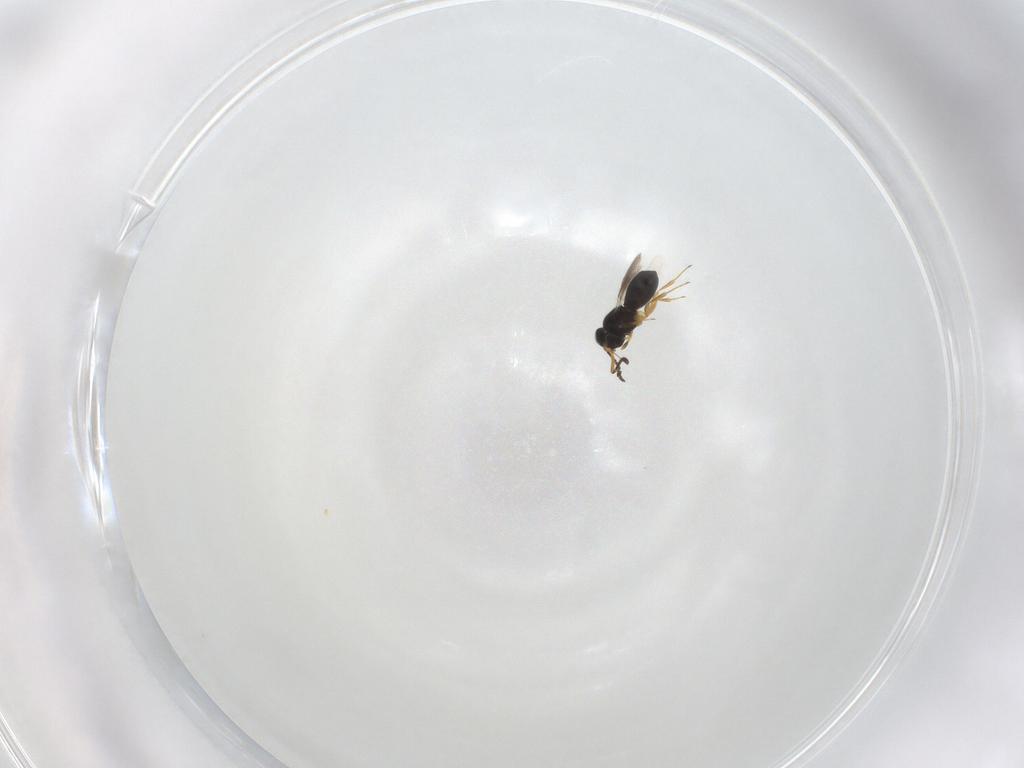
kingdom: Animalia
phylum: Arthropoda
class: Insecta
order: Hymenoptera
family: Scelionidae
